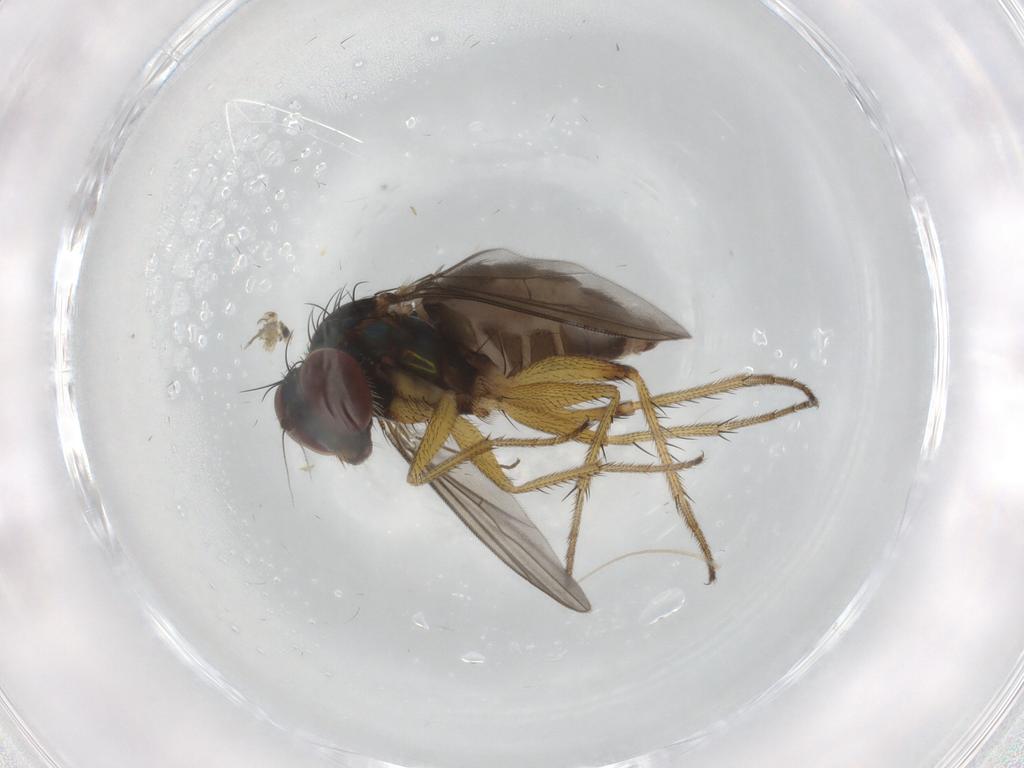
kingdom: Animalia
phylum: Arthropoda
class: Insecta
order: Diptera
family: Dolichopodidae
